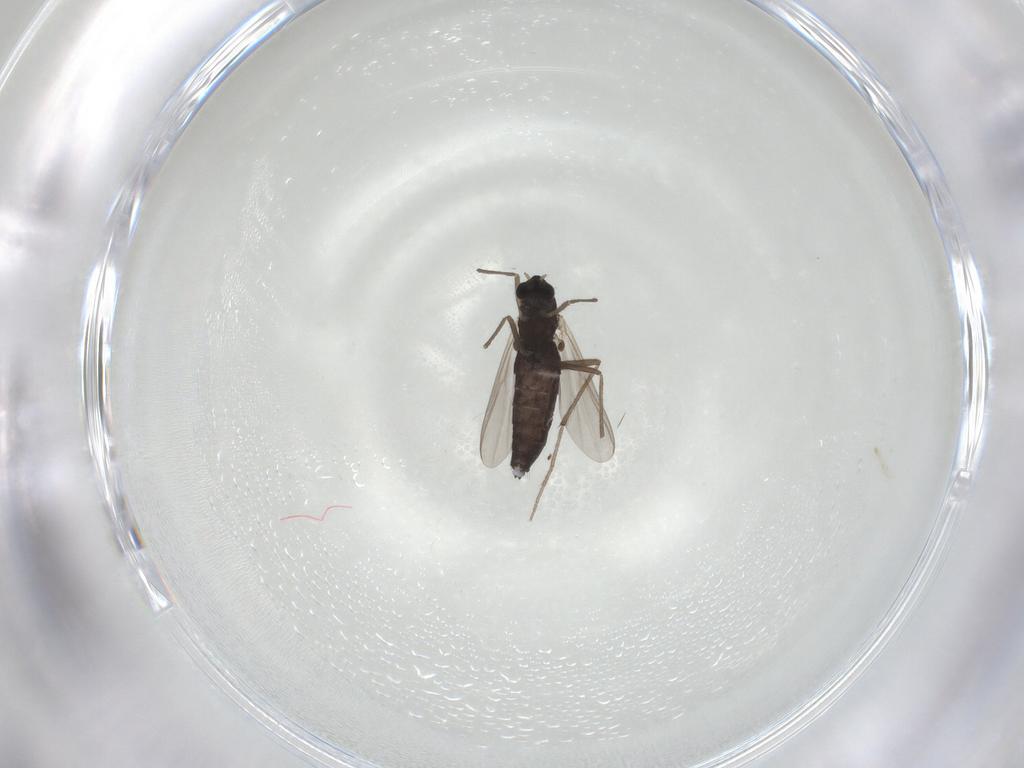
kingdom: Animalia
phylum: Arthropoda
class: Insecta
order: Diptera
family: Chironomidae
